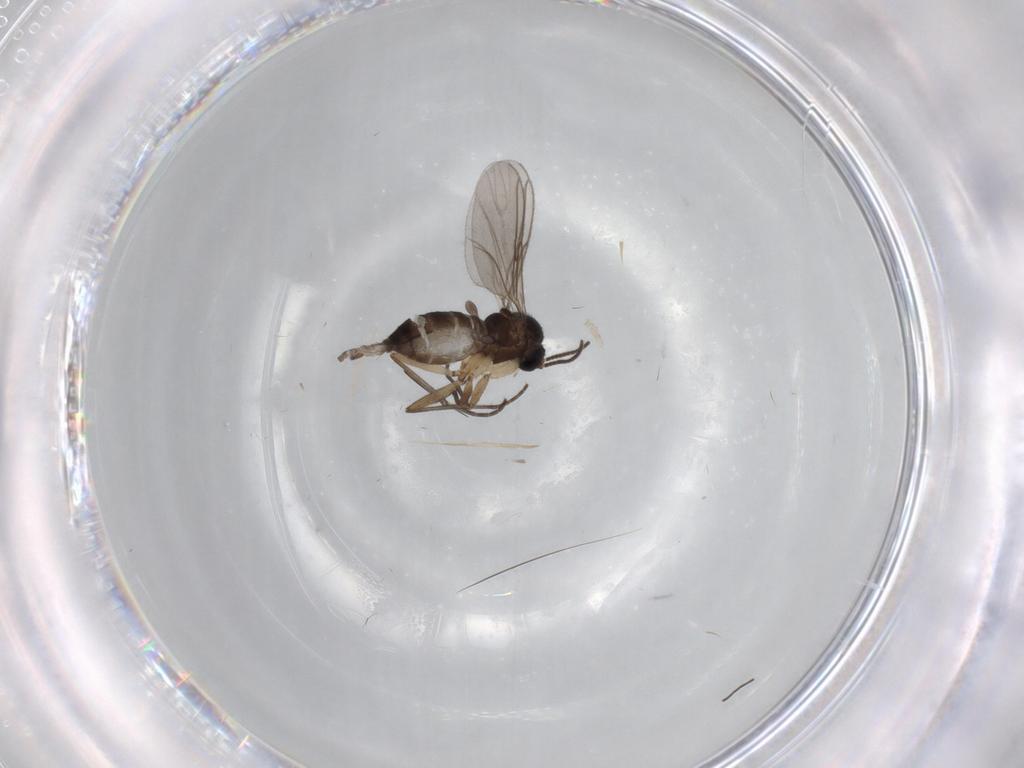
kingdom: Animalia
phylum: Arthropoda
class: Insecta
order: Diptera
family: Sciaridae
